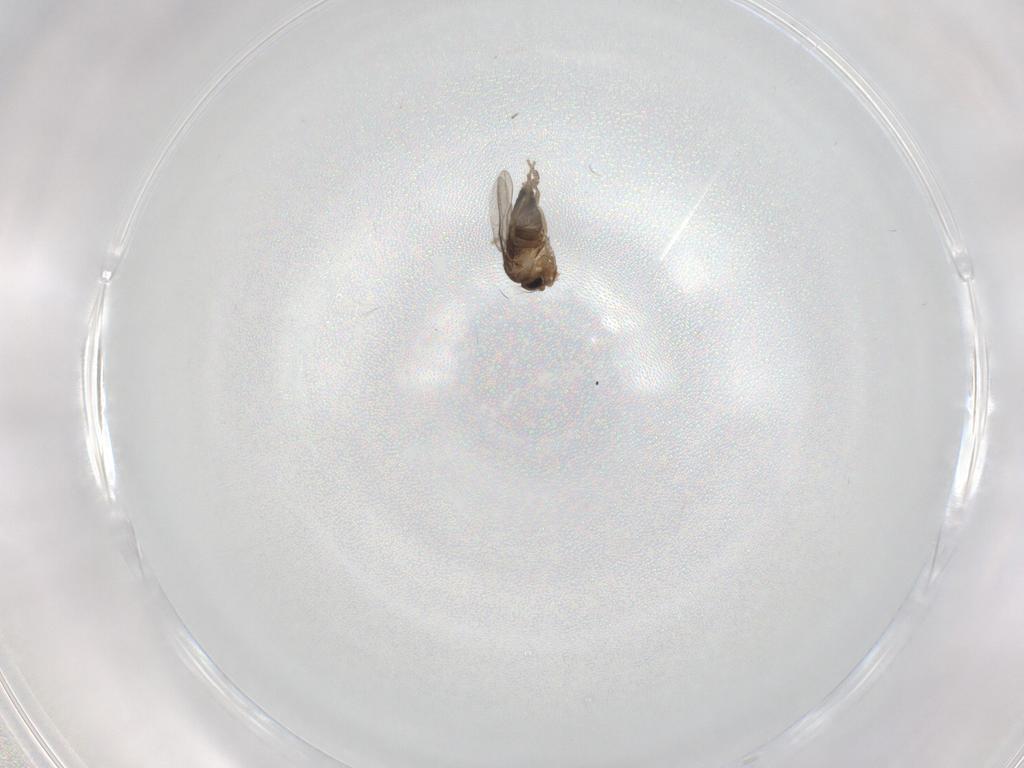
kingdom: Animalia
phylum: Arthropoda
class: Insecta
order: Diptera
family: Phoridae
